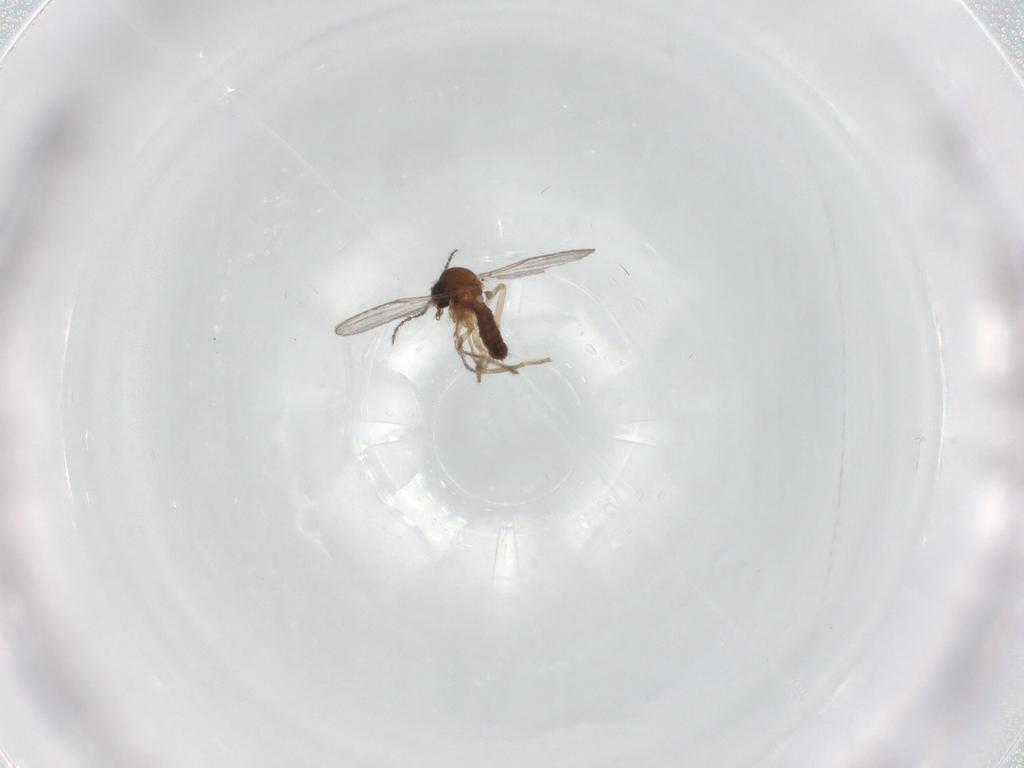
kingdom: Animalia
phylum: Arthropoda
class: Insecta
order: Diptera
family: Ceratopogonidae
